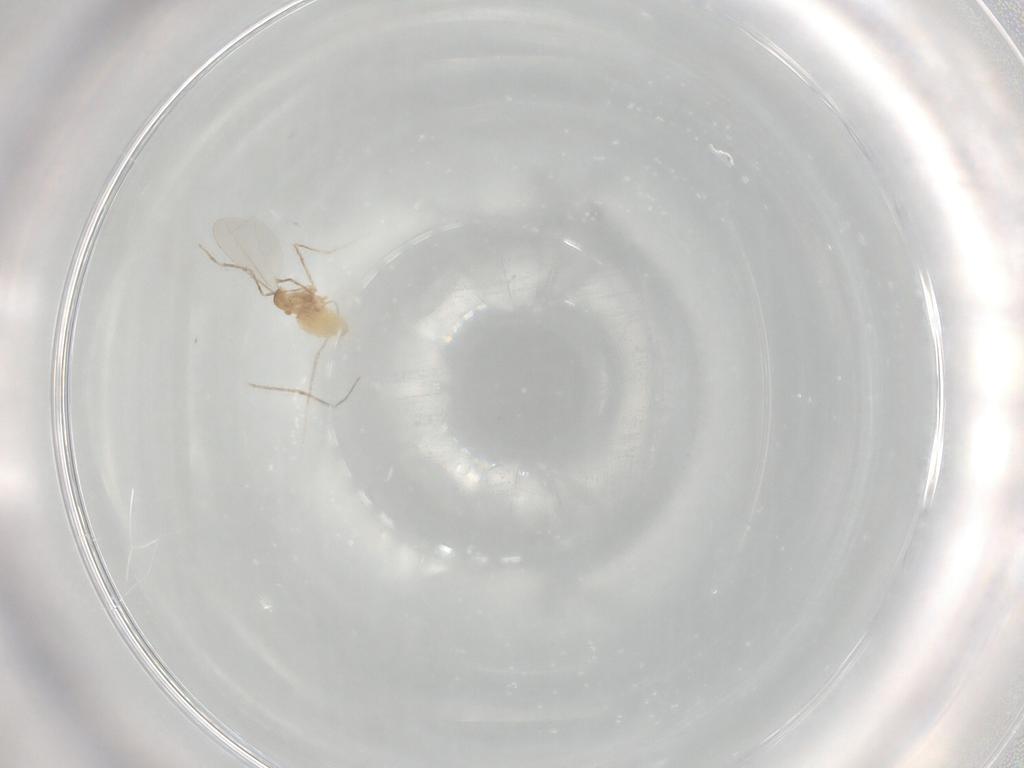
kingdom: Animalia
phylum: Arthropoda
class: Insecta
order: Diptera
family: Cecidomyiidae
